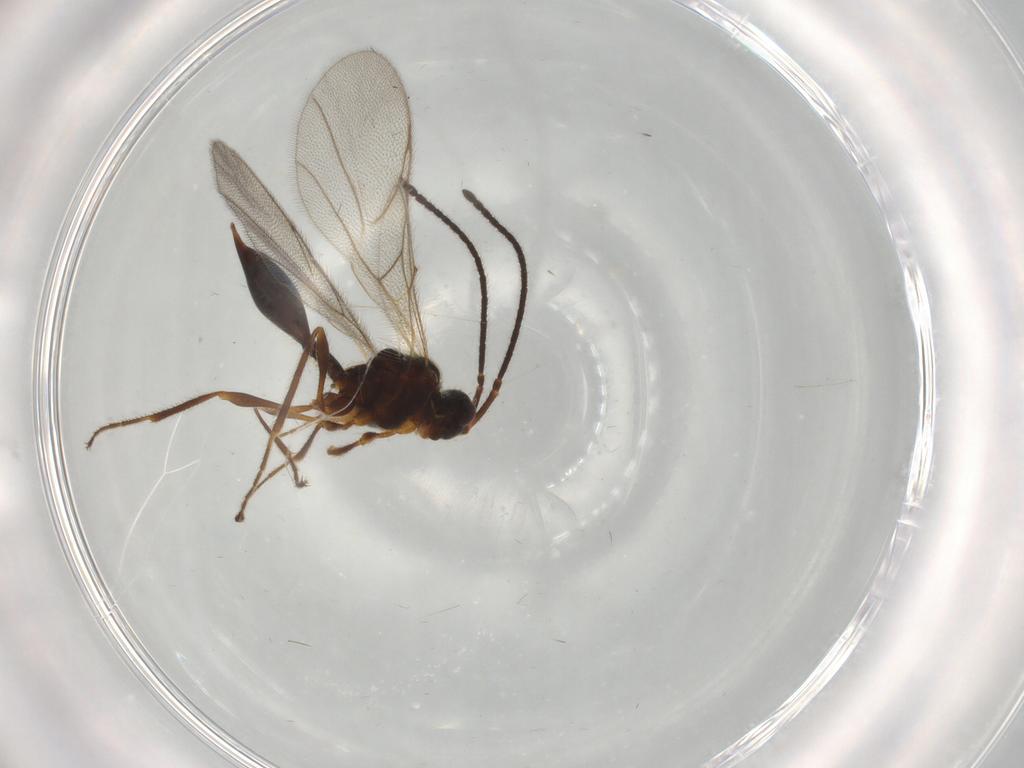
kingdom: Animalia
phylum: Arthropoda
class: Insecta
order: Hymenoptera
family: Diapriidae
